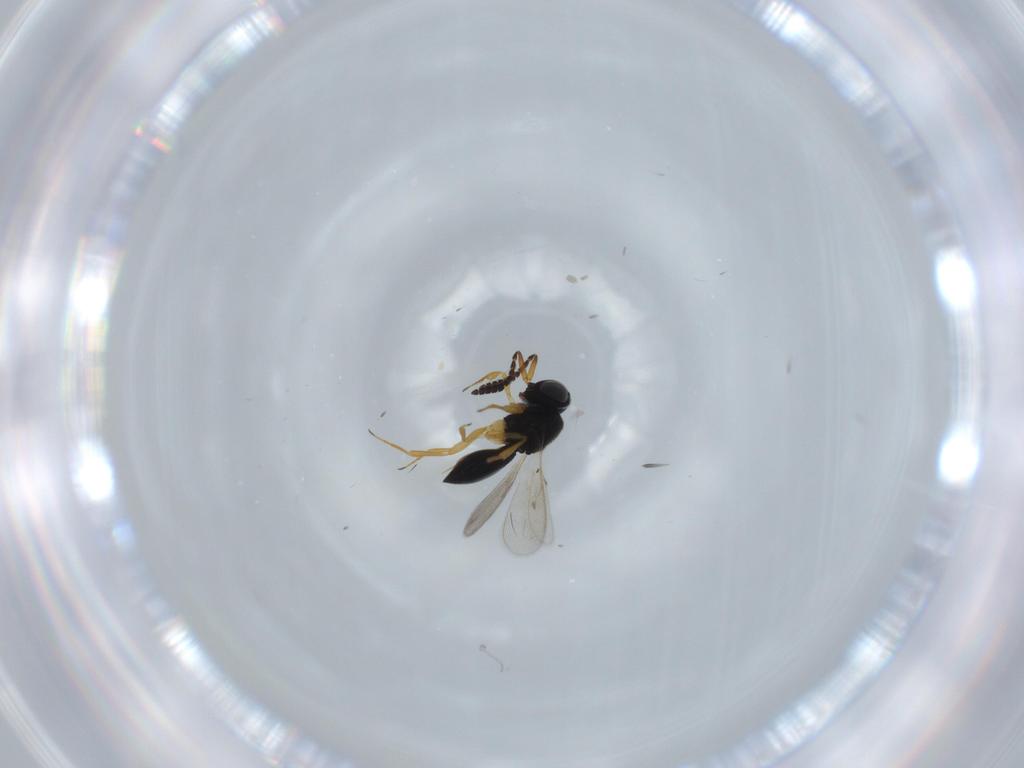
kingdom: Animalia
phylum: Arthropoda
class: Insecta
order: Hymenoptera
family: Scelionidae
